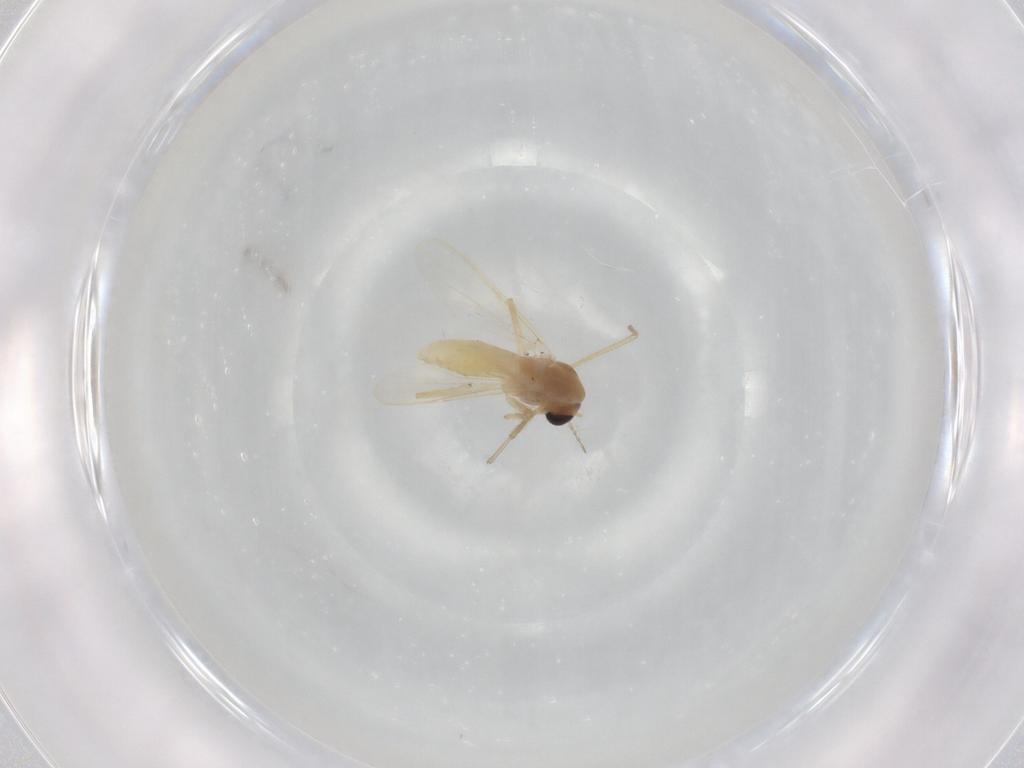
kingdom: Animalia
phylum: Arthropoda
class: Insecta
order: Diptera
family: Chironomidae
